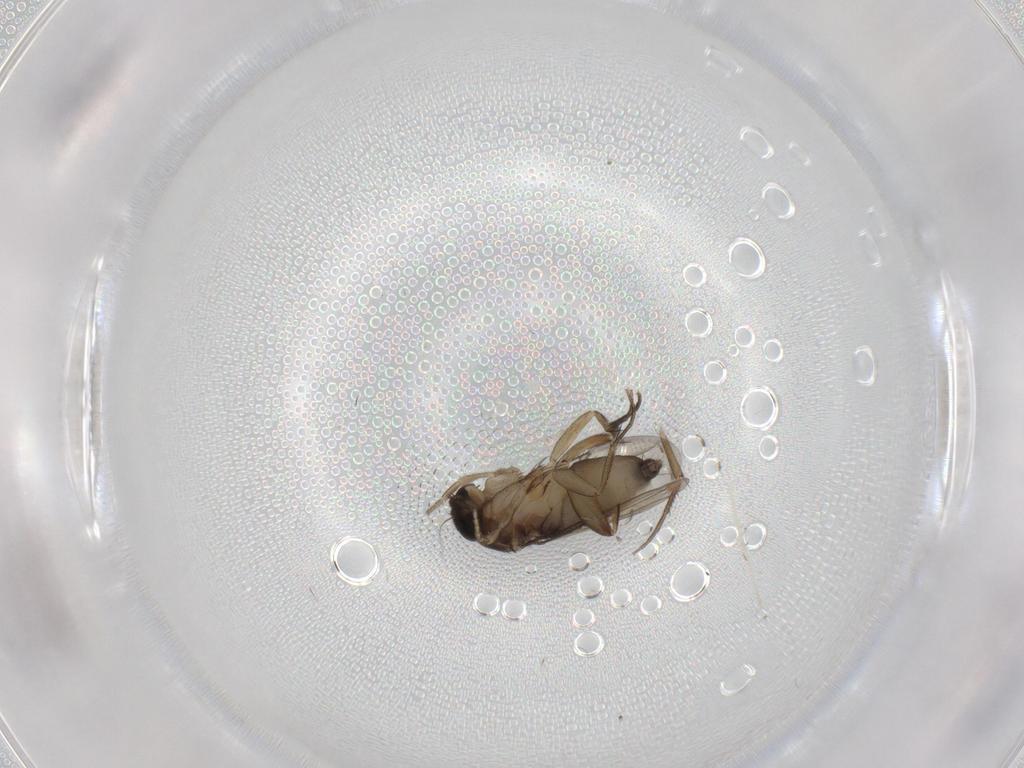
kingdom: Animalia
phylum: Arthropoda
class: Insecta
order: Diptera
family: Phoridae
